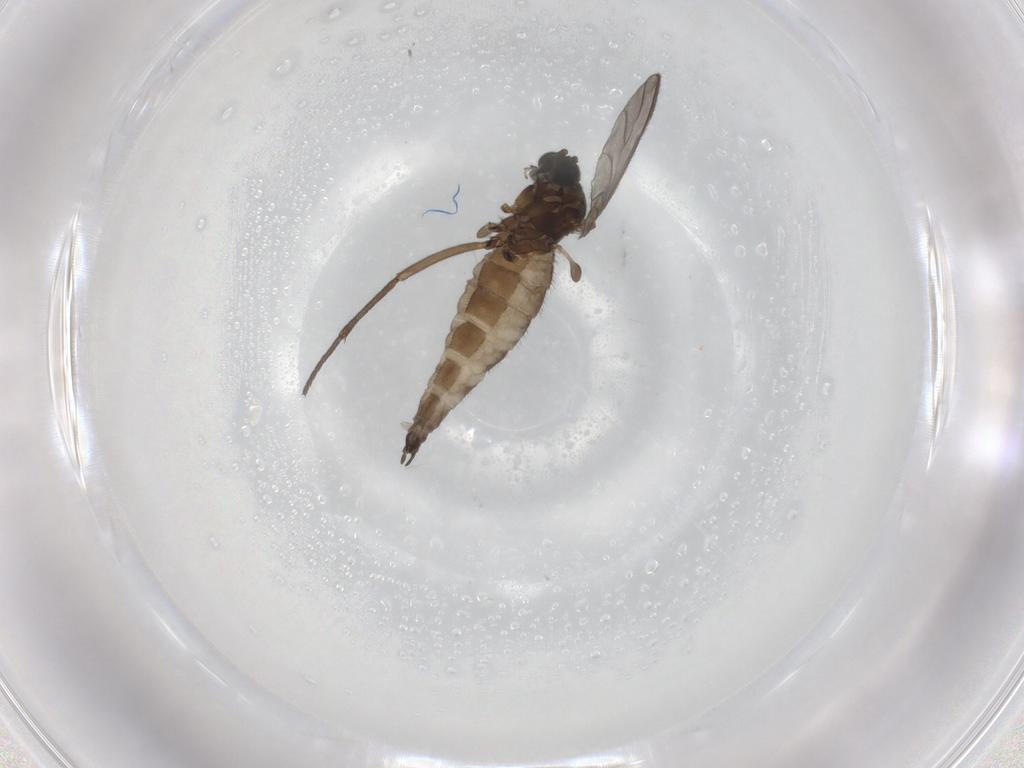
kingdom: Animalia
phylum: Arthropoda
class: Insecta
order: Diptera
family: Sciaridae
